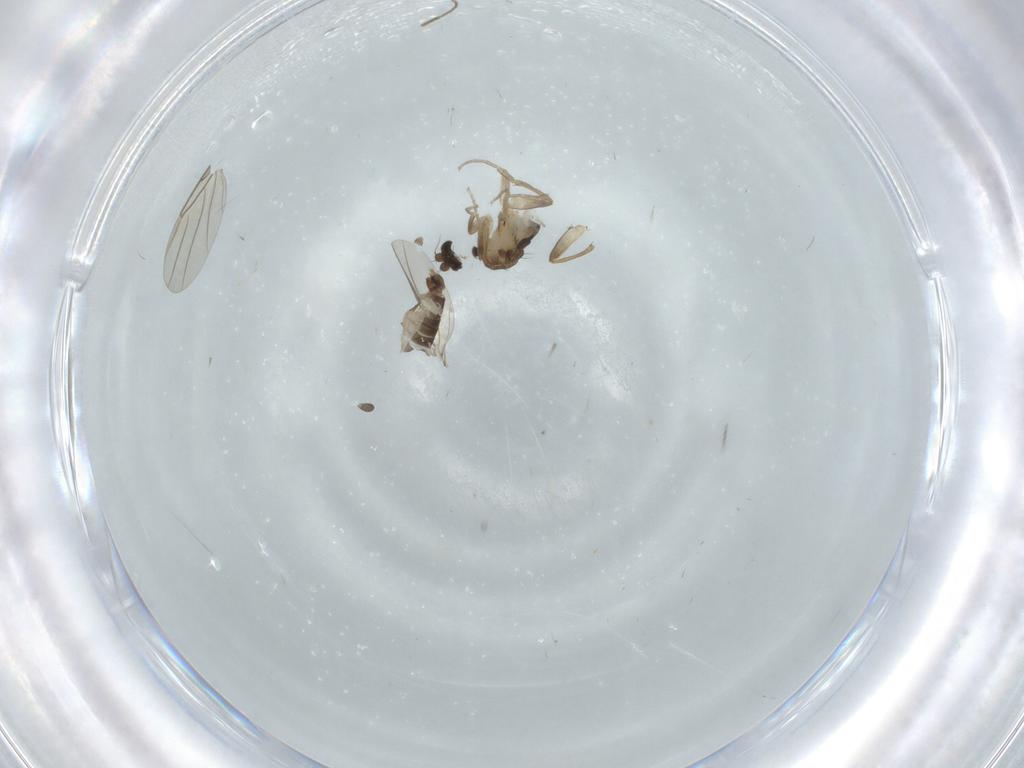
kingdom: Animalia
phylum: Arthropoda
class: Insecta
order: Diptera
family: Phoridae
